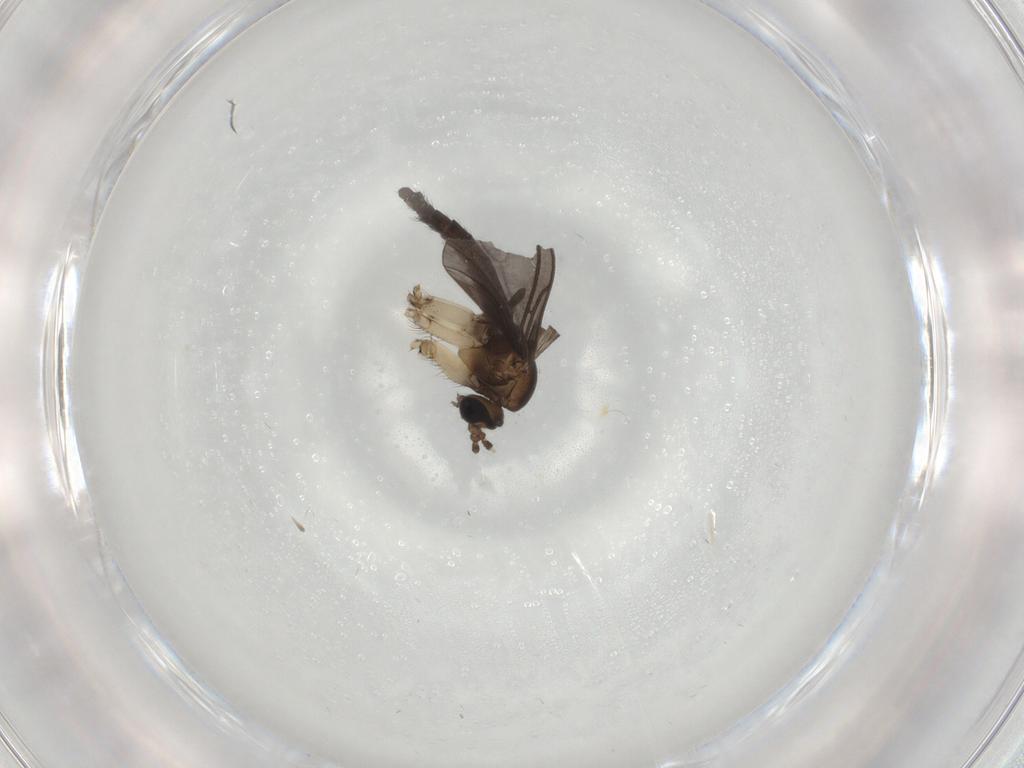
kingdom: Animalia
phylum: Arthropoda
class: Insecta
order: Diptera
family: Sciaridae
